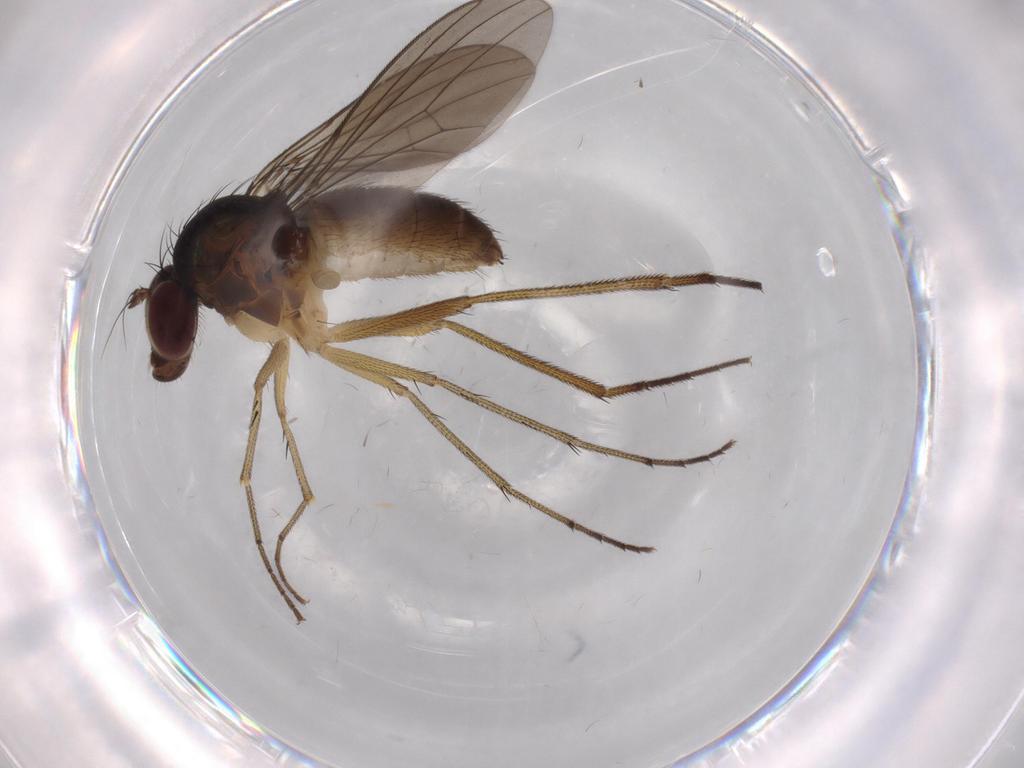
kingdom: Animalia
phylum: Arthropoda
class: Insecta
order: Diptera
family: Dolichopodidae
